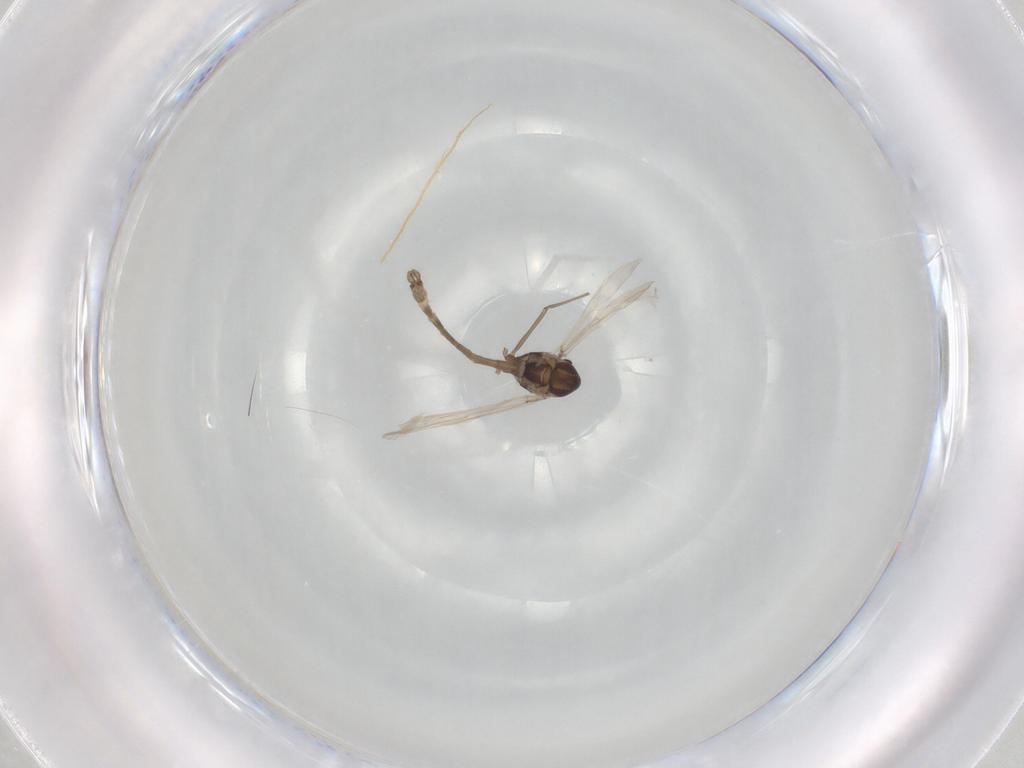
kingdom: Animalia
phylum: Arthropoda
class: Insecta
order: Diptera
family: Chironomidae
